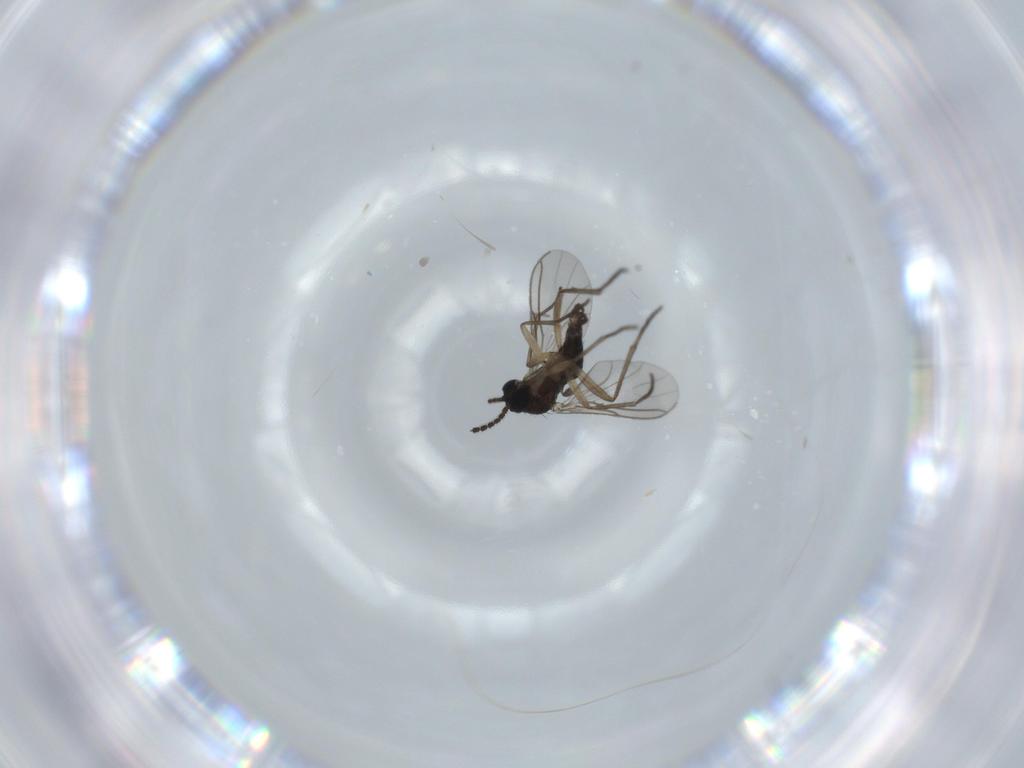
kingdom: Animalia
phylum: Arthropoda
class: Insecta
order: Diptera
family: Sciaridae
